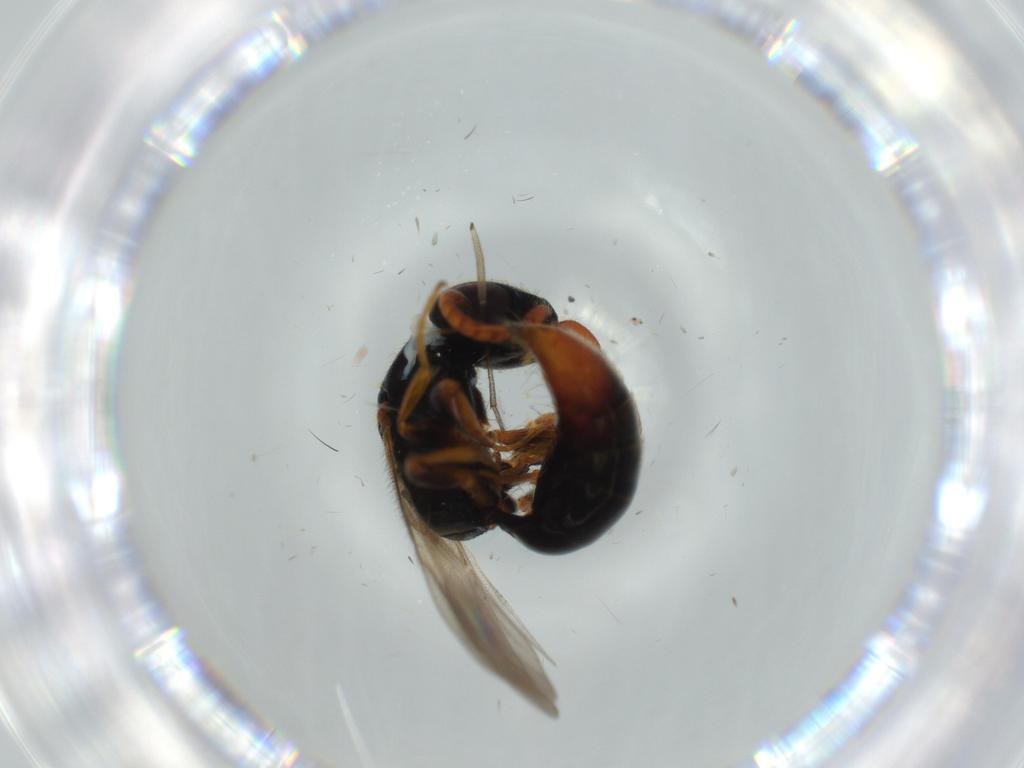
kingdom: Animalia
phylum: Arthropoda
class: Insecta
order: Hymenoptera
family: Bethylidae
